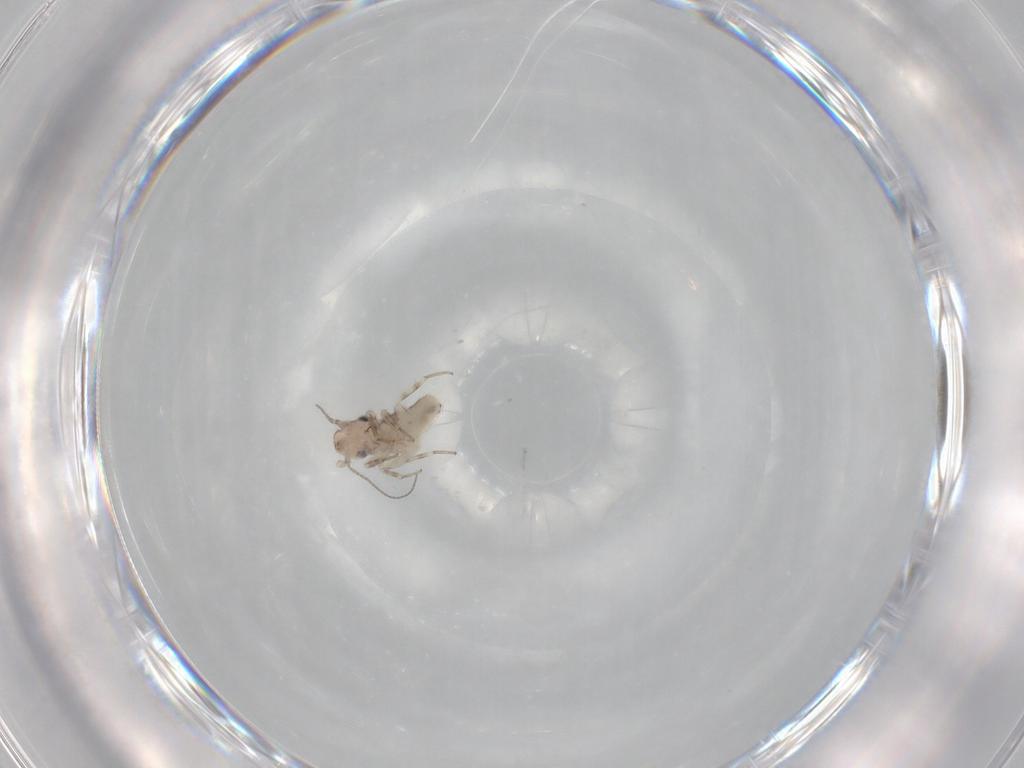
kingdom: Animalia
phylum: Arthropoda
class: Insecta
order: Psocodea
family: Lepidopsocidae
